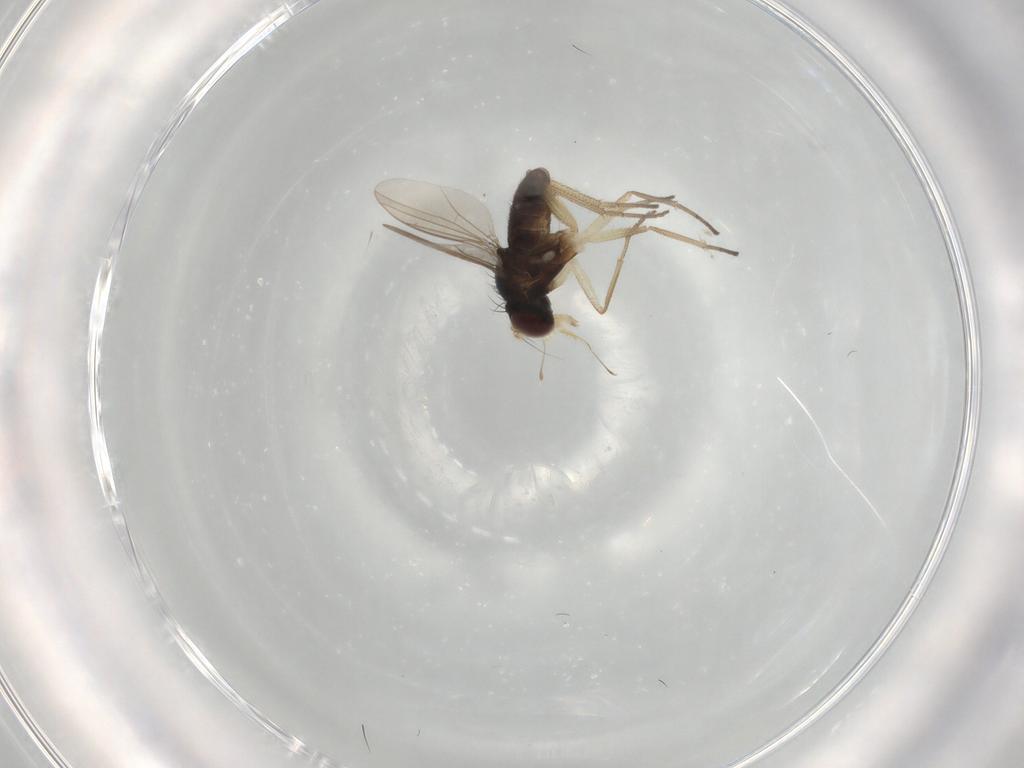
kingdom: Animalia
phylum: Arthropoda
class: Insecta
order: Diptera
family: Dolichopodidae
